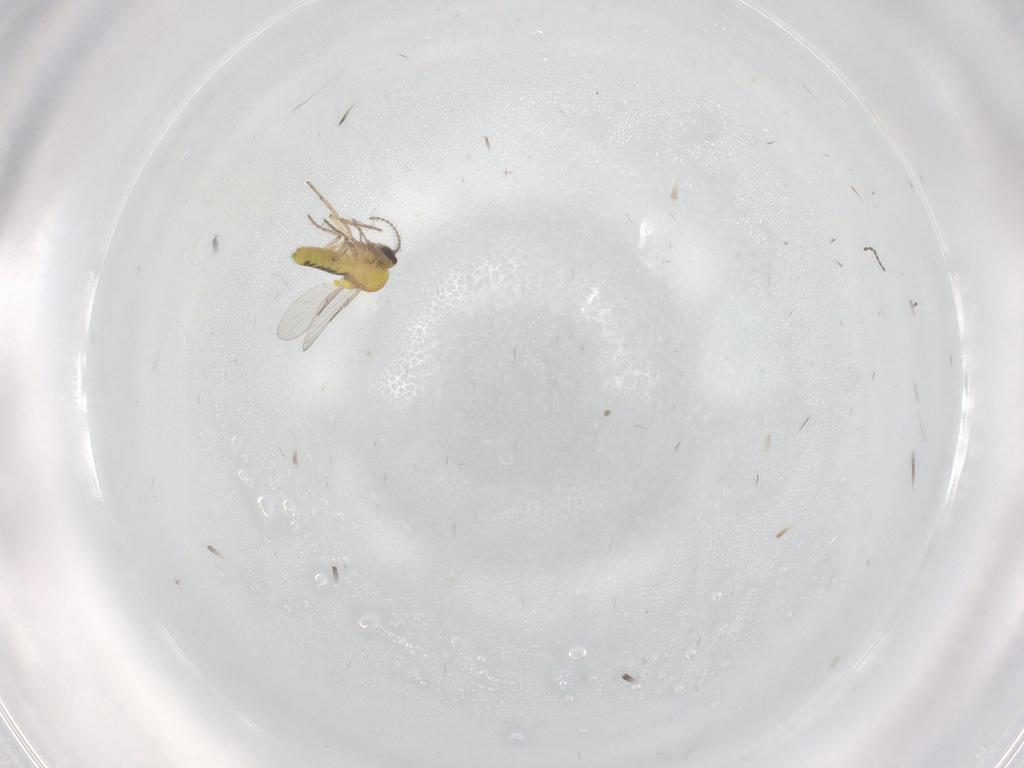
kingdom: Animalia
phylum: Arthropoda
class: Insecta
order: Diptera
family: Ceratopogonidae
